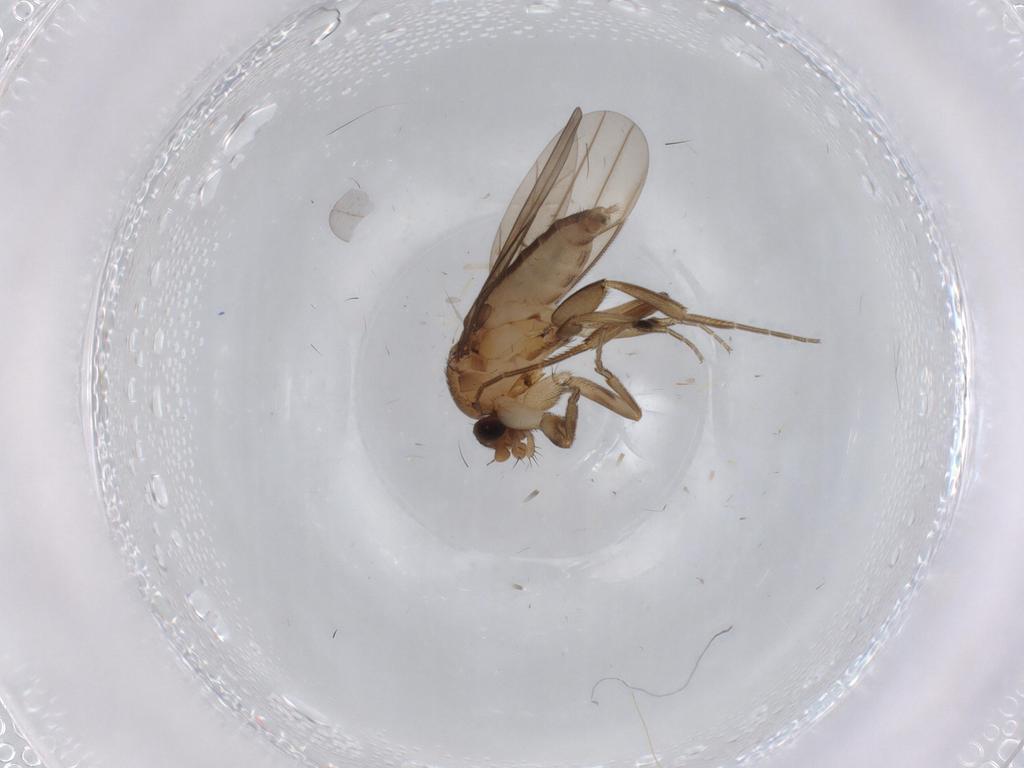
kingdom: Animalia
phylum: Arthropoda
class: Insecta
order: Diptera
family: Phoridae
